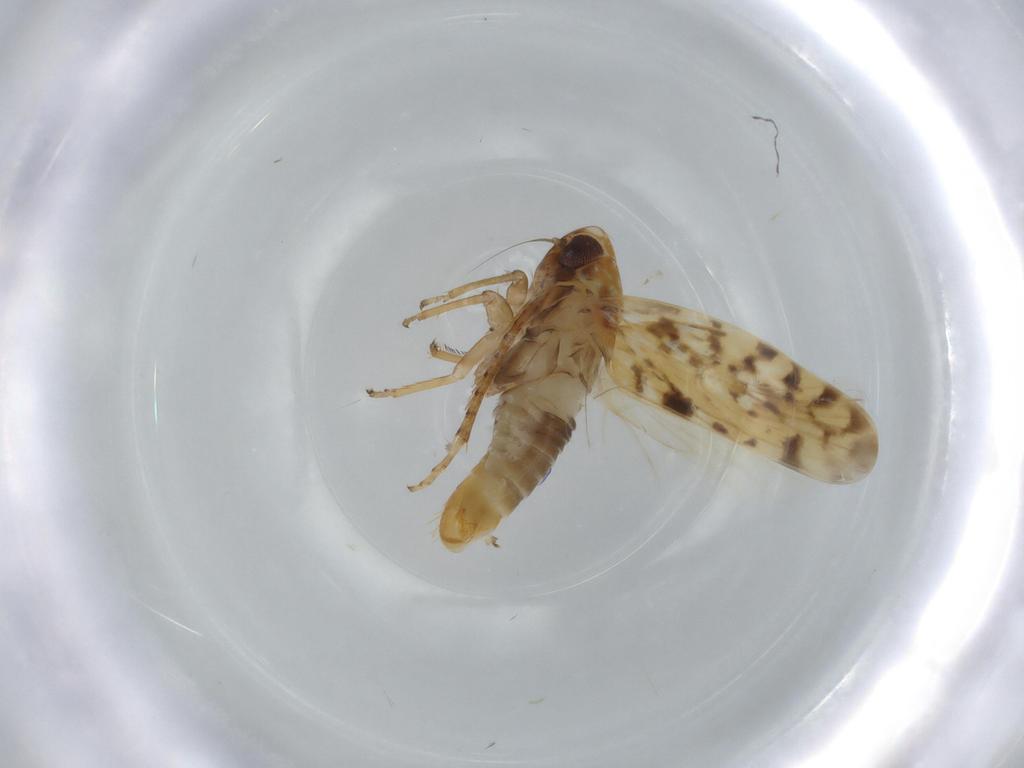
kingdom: Animalia
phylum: Arthropoda
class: Insecta
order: Hemiptera
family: Cicadellidae
